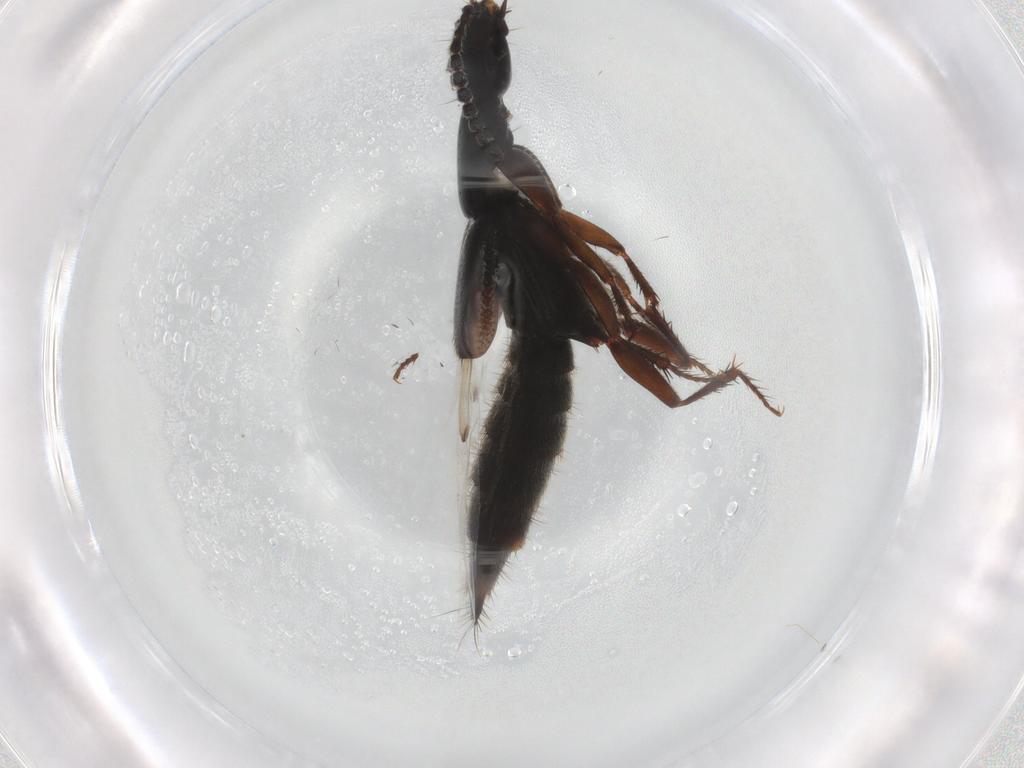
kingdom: Animalia
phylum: Arthropoda
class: Insecta
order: Coleoptera
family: Staphylinidae
